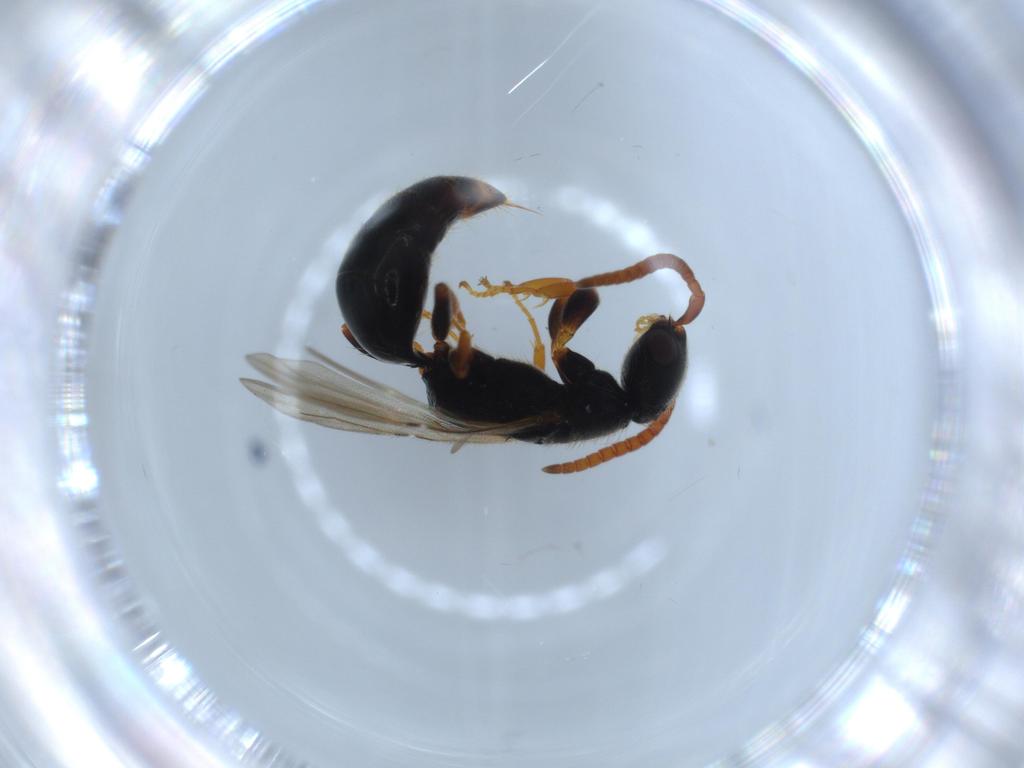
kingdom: Animalia
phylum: Arthropoda
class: Insecta
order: Hymenoptera
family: Bethylidae
